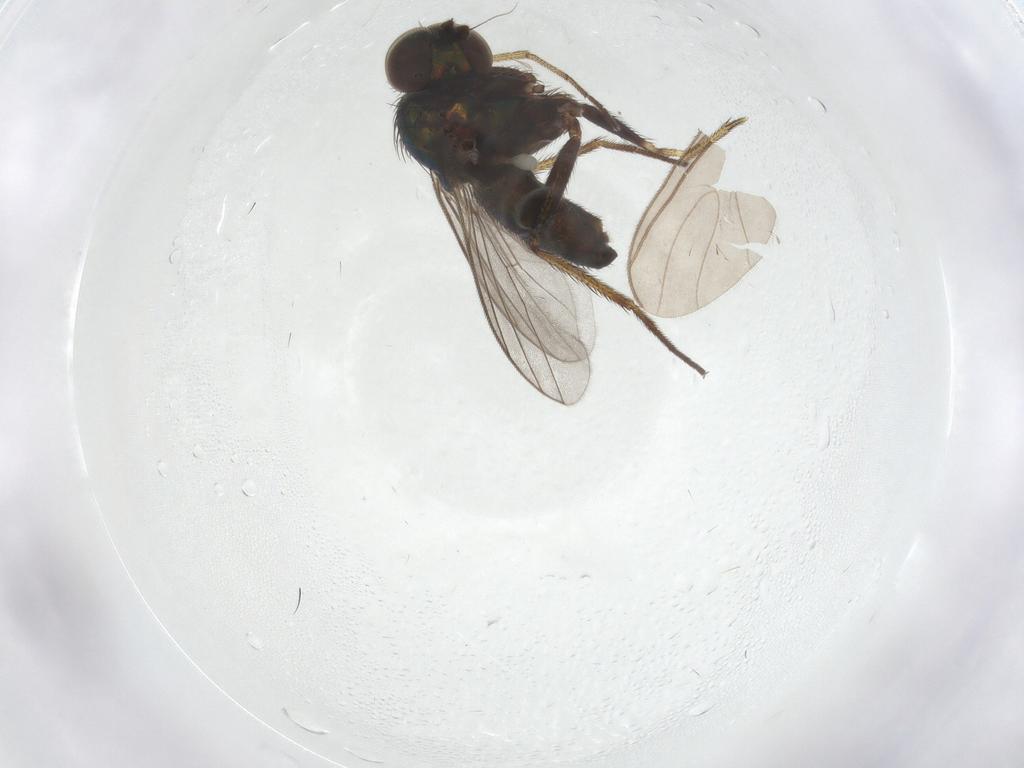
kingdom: Animalia
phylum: Arthropoda
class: Insecta
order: Diptera
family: Dolichopodidae
